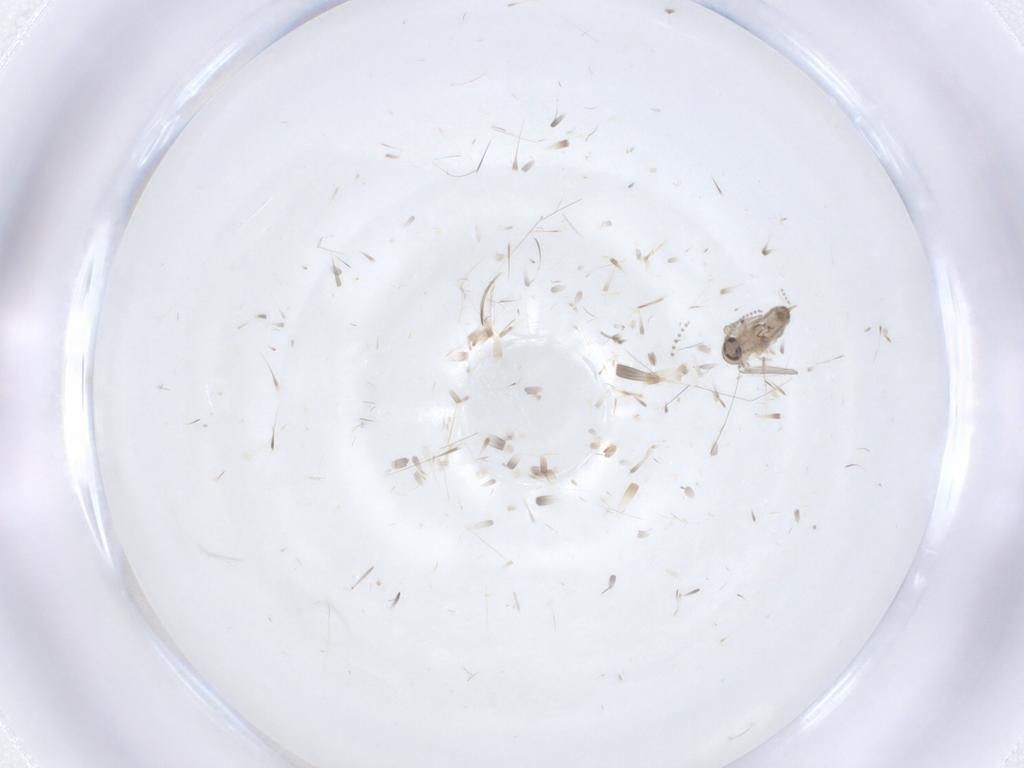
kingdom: Animalia
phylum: Arthropoda
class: Insecta
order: Diptera
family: Psychodidae
